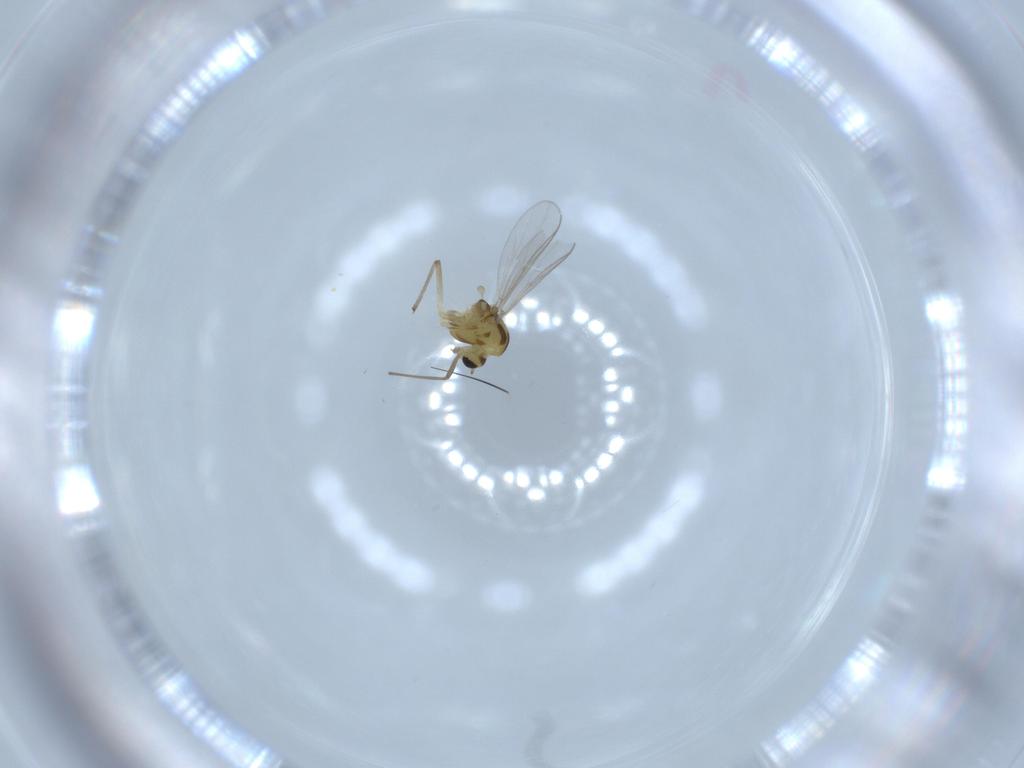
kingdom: Animalia
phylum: Arthropoda
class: Insecta
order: Diptera
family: Chironomidae
